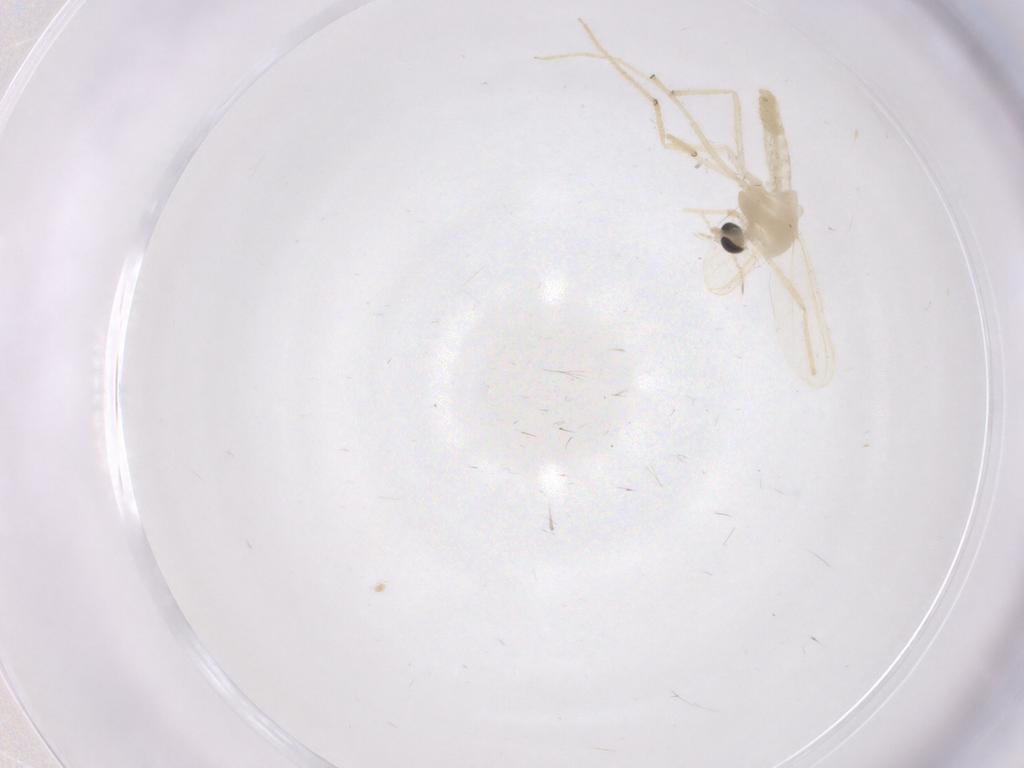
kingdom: Animalia
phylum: Arthropoda
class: Insecta
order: Diptera
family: Chironomidae
